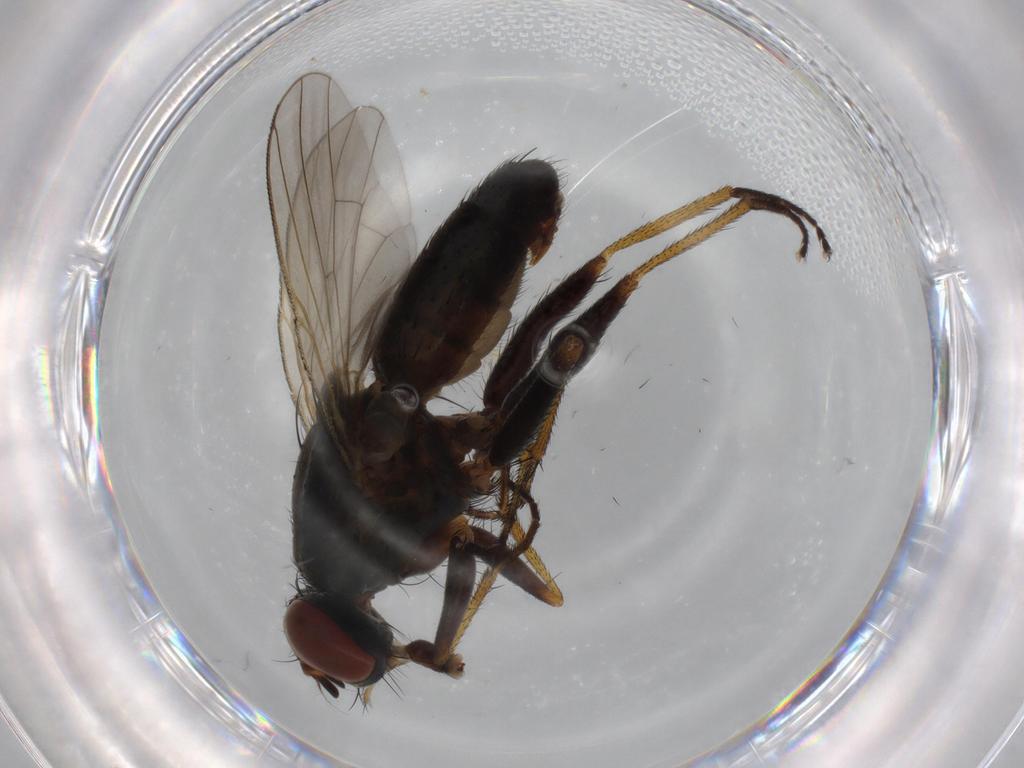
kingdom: Animalia
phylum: Arthropoda
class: Insecta
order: Diptera
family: Muscidae
